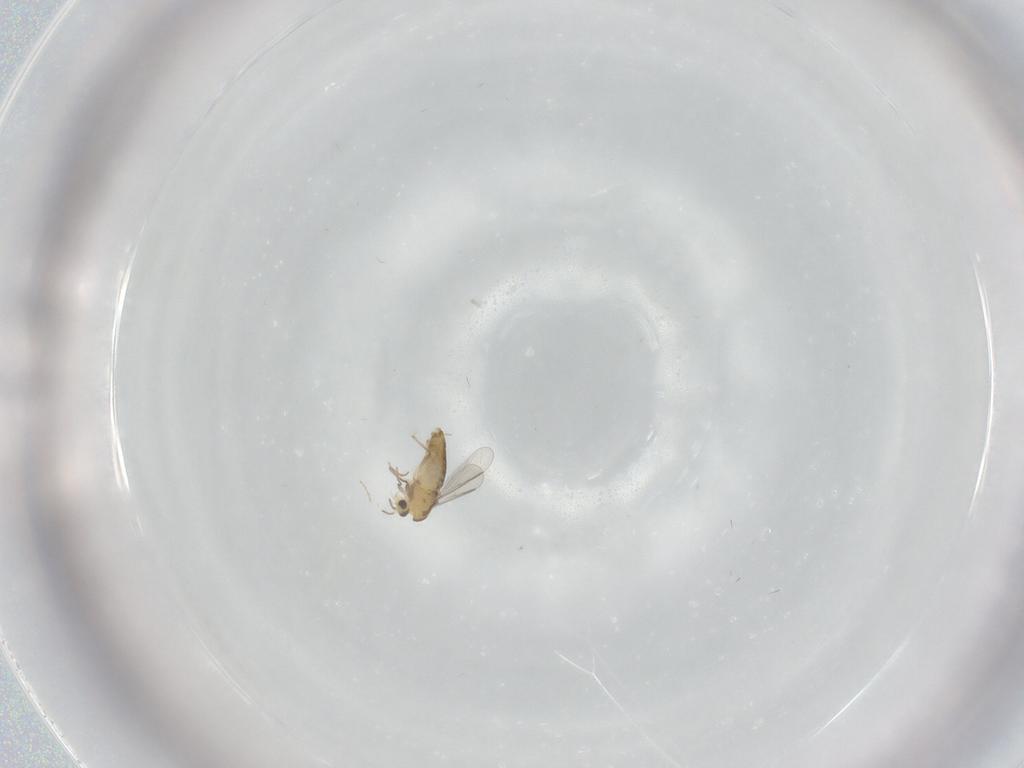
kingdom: Animalia
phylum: Arthropoda
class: Insecta
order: Diptera
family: Chironomidae
